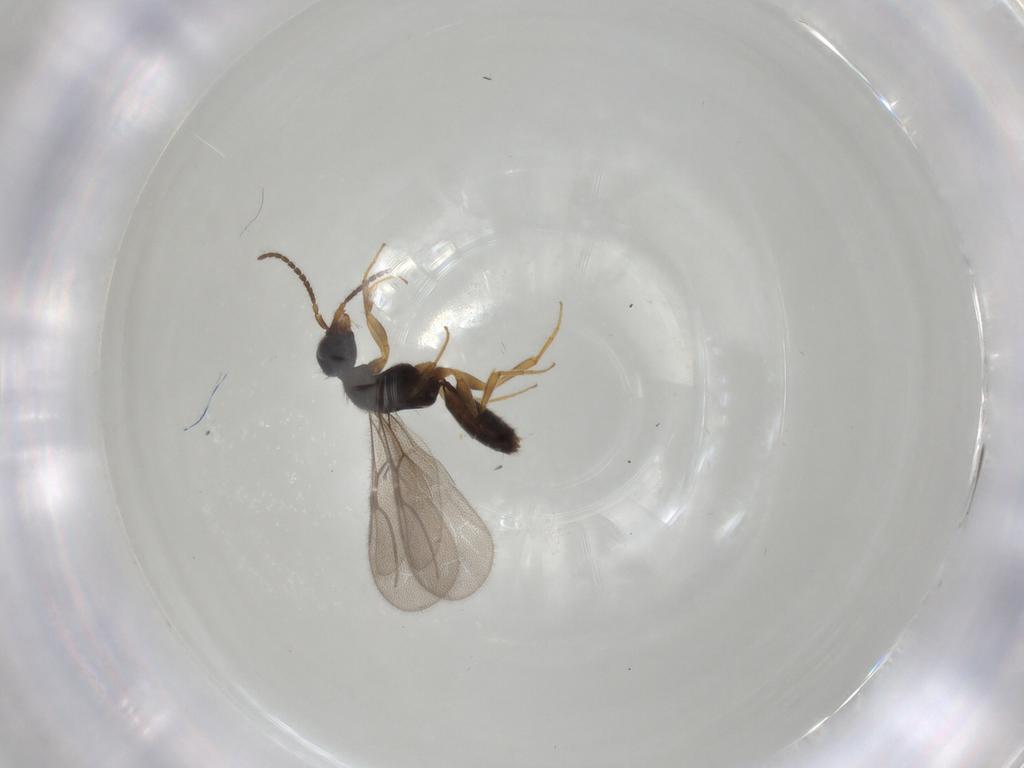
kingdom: Animalia
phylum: Arthropoda
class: Insecta
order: Hymenoptera
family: Bethylidae
